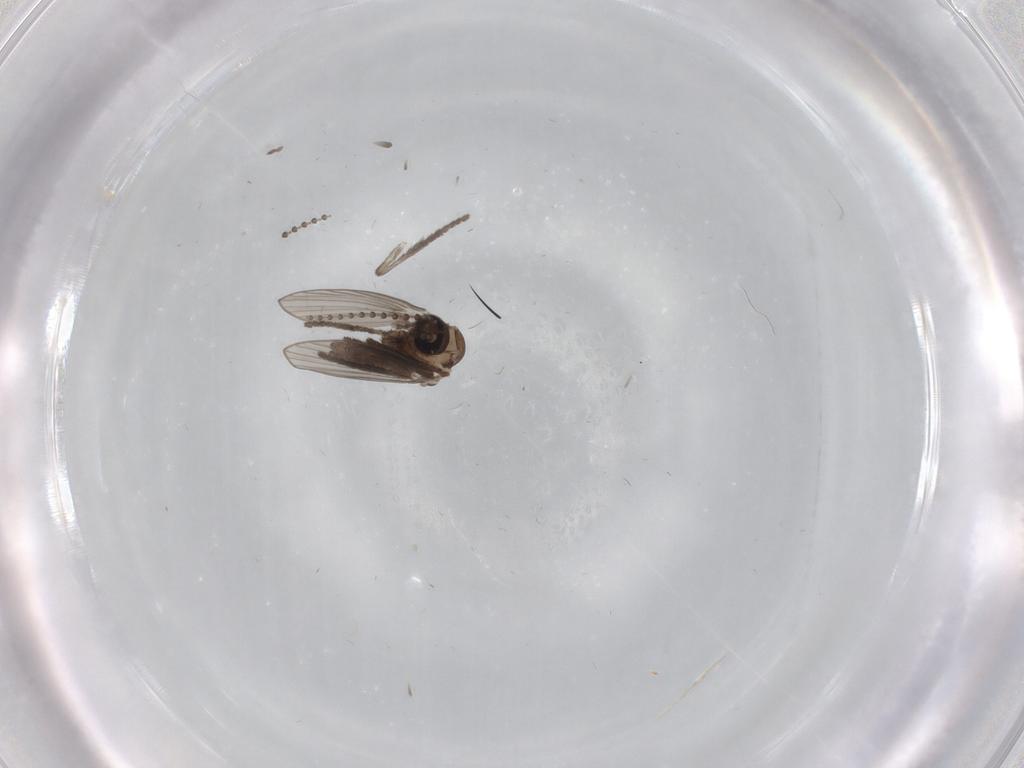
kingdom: Animalia
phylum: Arthropoda
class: Insecta
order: Diptera
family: Psychodidae
